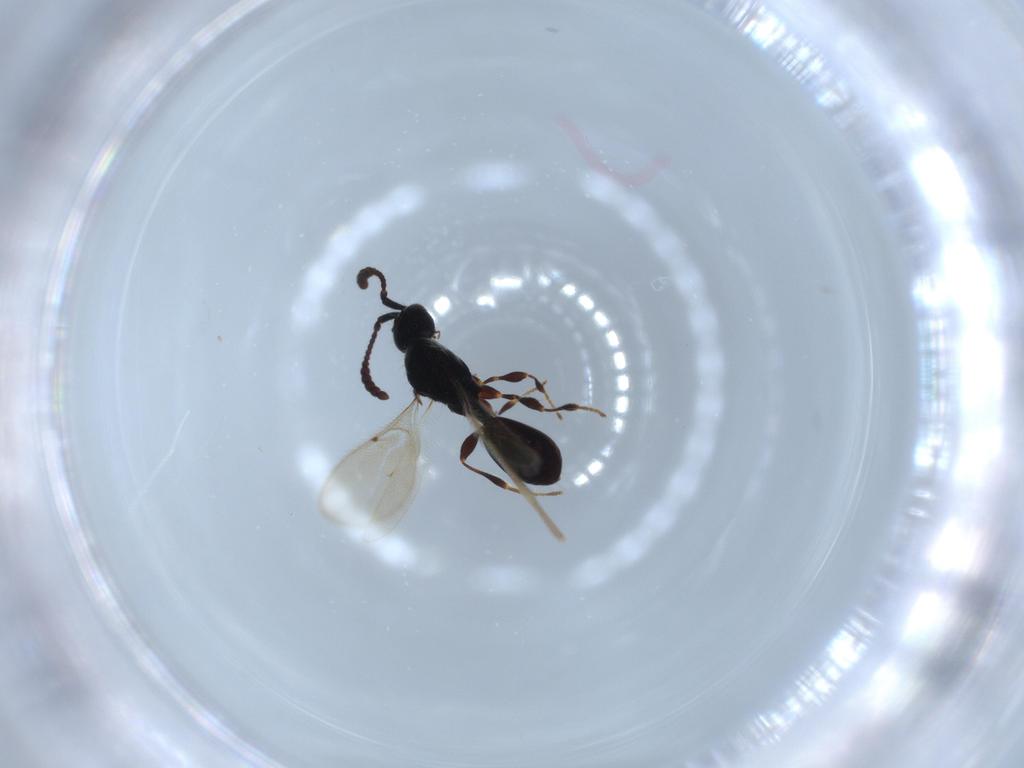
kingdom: Animalia
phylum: Arthropoda
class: Insecta
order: Hymenoptera
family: Diapriidae
